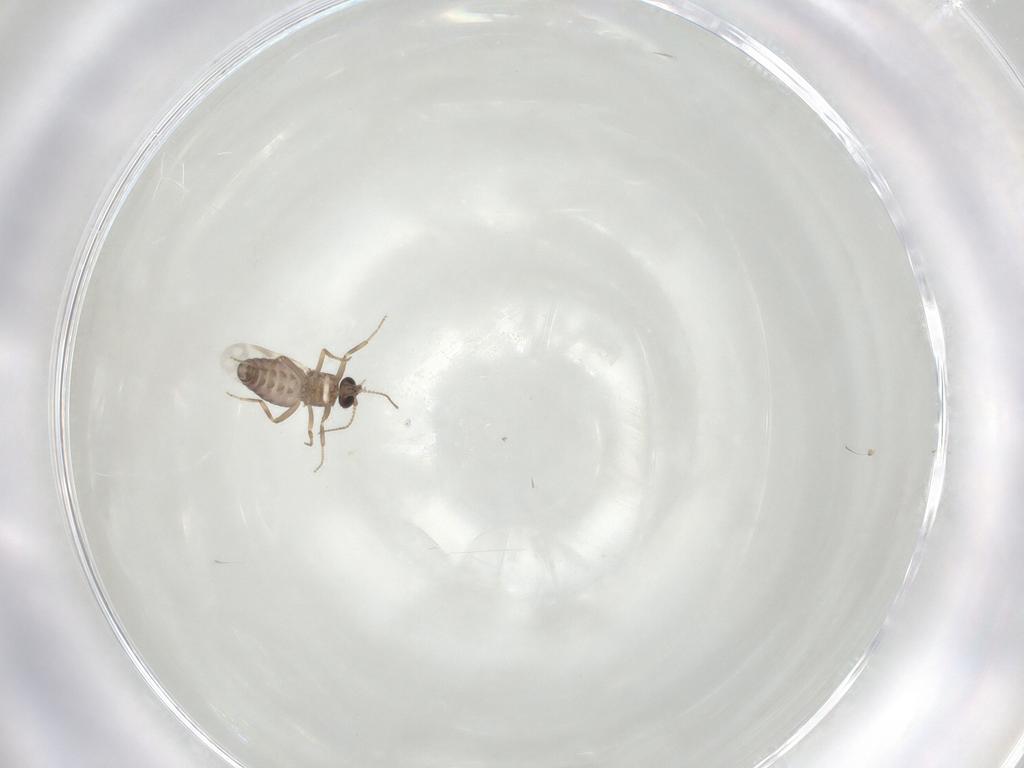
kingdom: Animalia
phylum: Arthropoda
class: Insecta
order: Diptera
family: Ceratopogonidae
